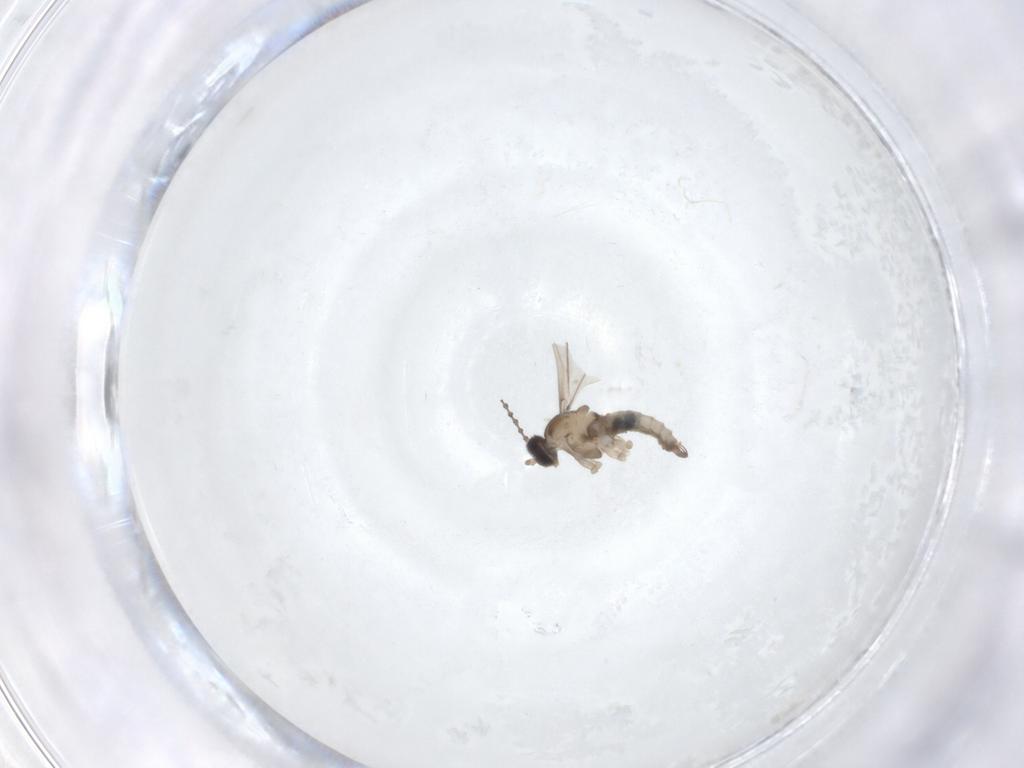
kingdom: Animalia
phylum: Arthropoda
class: Insecta
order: Diptera
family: Cecidomyiidae
